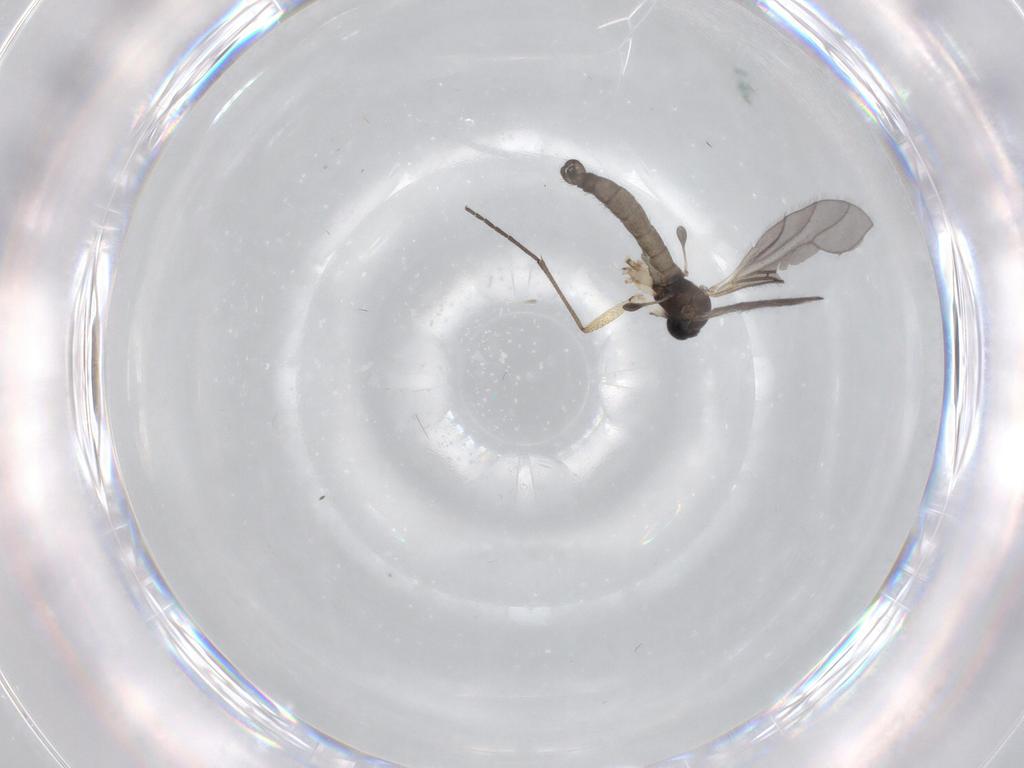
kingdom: Animalia
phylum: Arthropoda
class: Insecta
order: Diptera
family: Sciaridae
